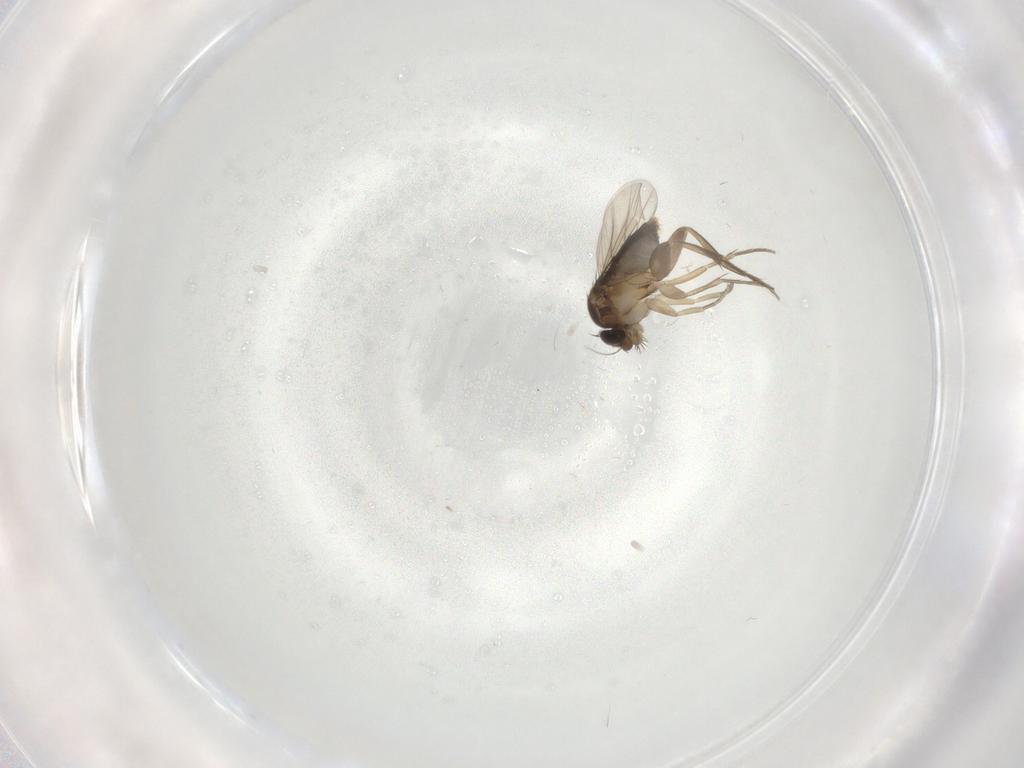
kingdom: Animalia
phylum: Arthropoda
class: Insecta
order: Diptera
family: Phoridae
